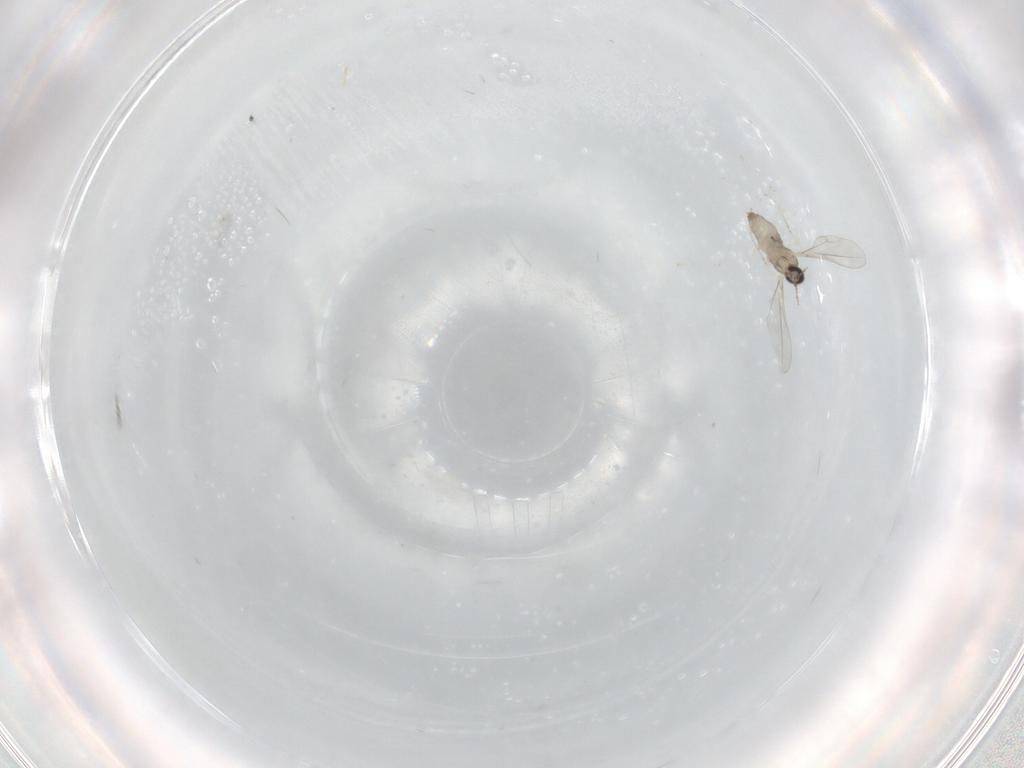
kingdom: Animalia
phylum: Arthropoda
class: Insecta
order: Diptera
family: Cecidomyiidae
